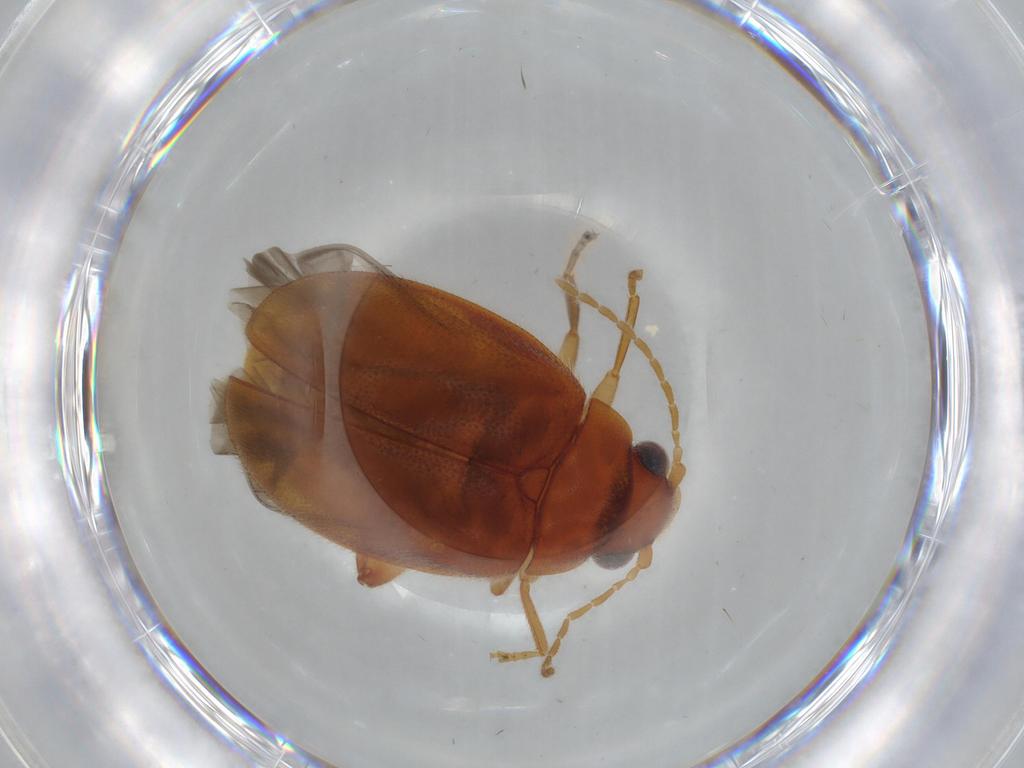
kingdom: Animalia
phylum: Arthropoda
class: Insecta
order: Coleoptera
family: Scirtidae
